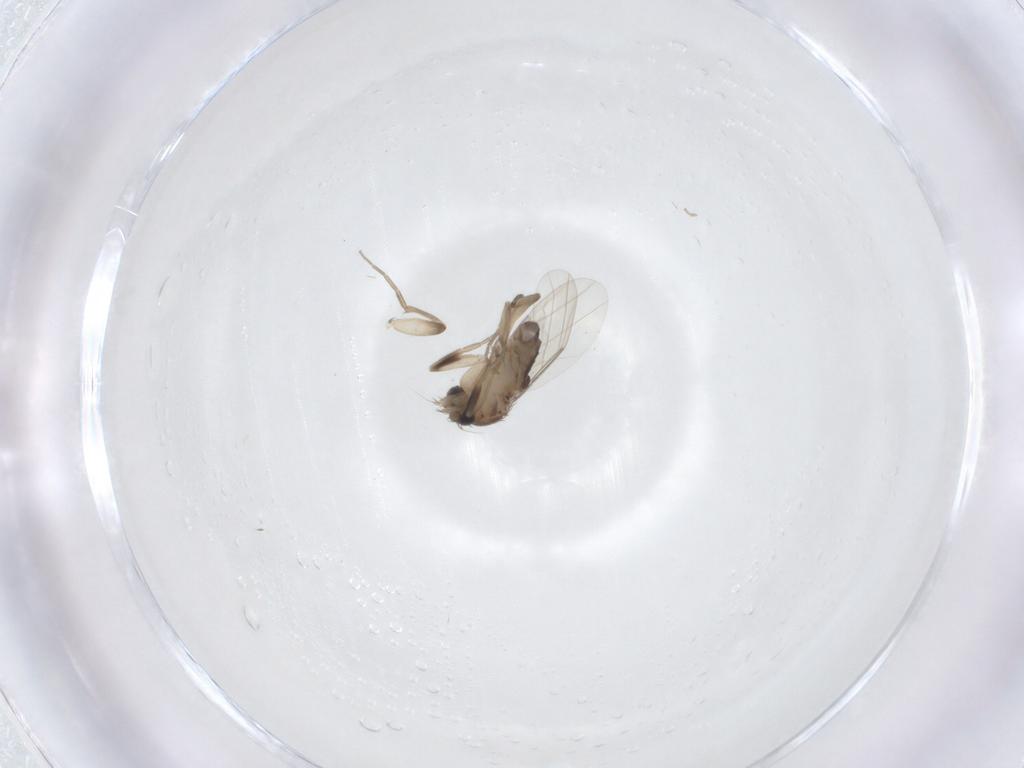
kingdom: Animalia
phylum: Arthropoda
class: Insecta
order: Diptera
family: Phoridae
